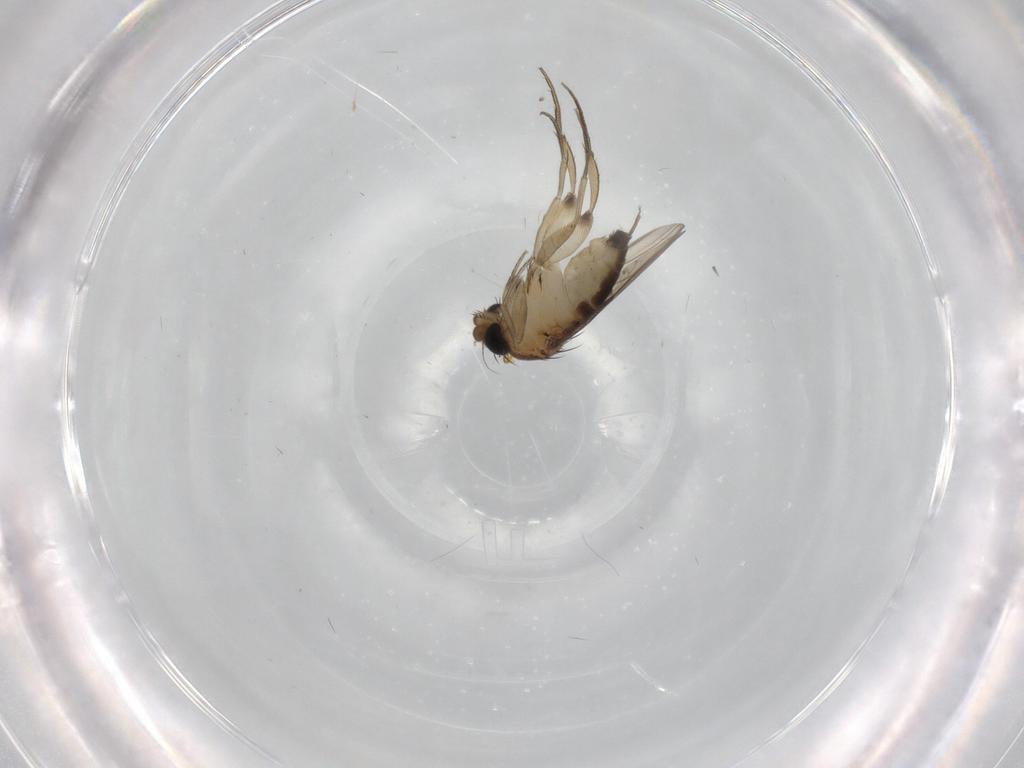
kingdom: Animalia
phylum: Arthropoda
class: Insecta
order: Diptera
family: Phoridae
